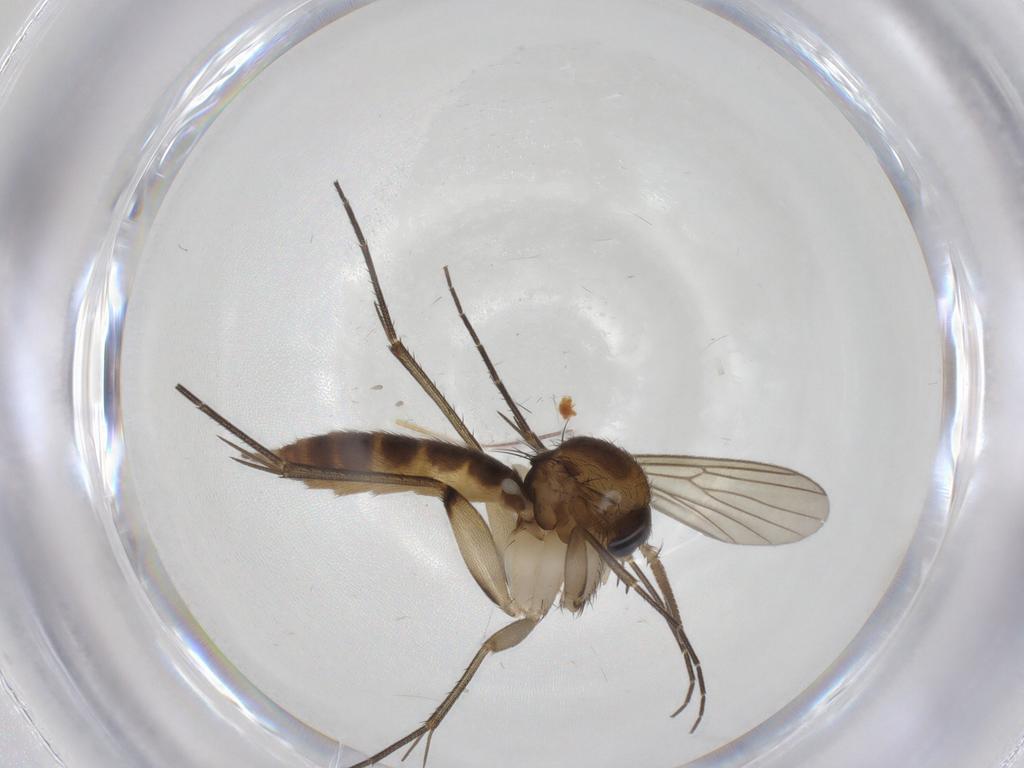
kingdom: Animalia
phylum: Arthropoda
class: Insecta
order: Diptera
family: Mycetophilidae
